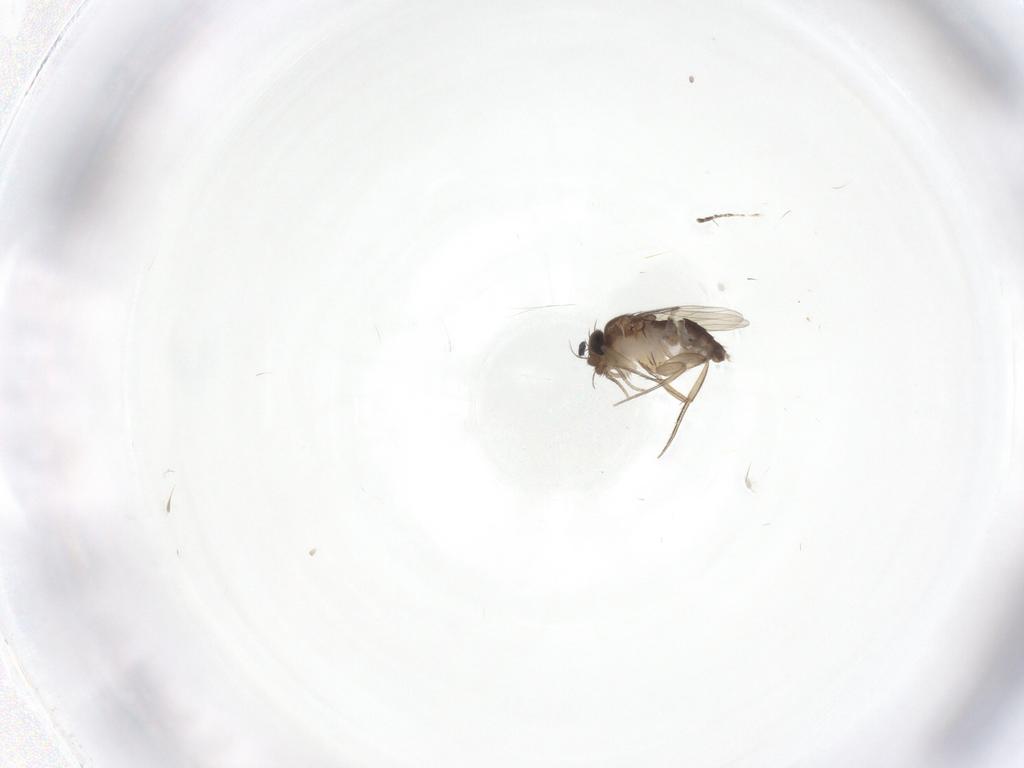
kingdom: Animalia
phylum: Arthropoda
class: Insecta
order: Diptera
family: Phoridae
